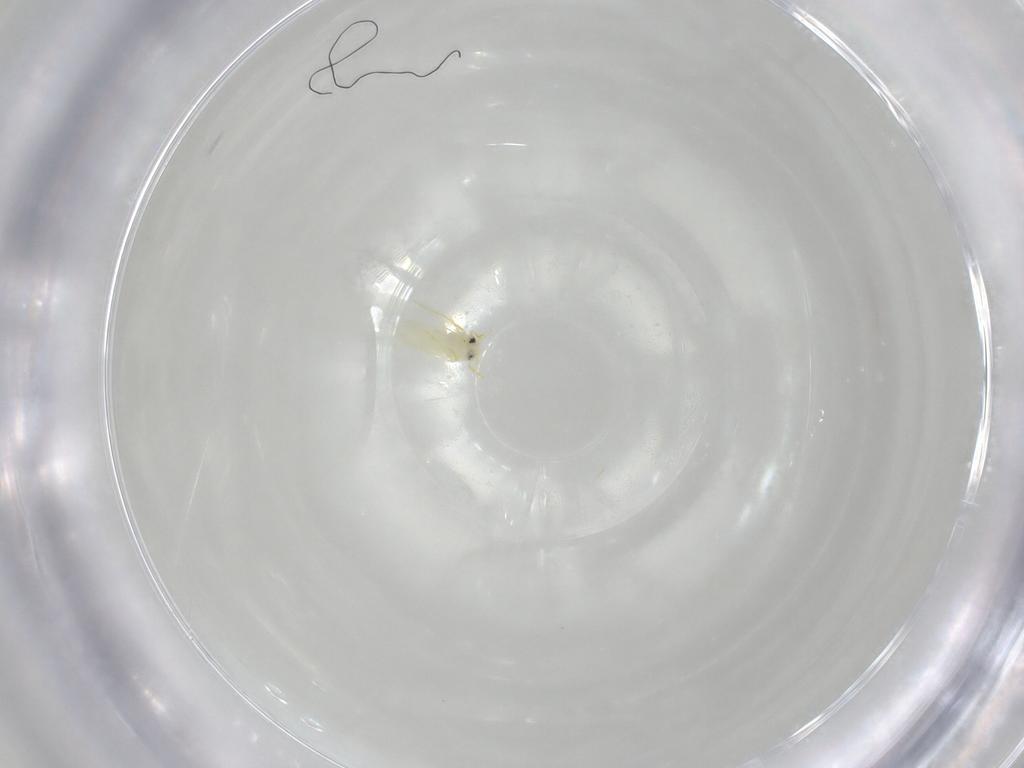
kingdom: Animalia
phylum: Arthropoda
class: Insecta
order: Hemiptera
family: Aleyrodidae
